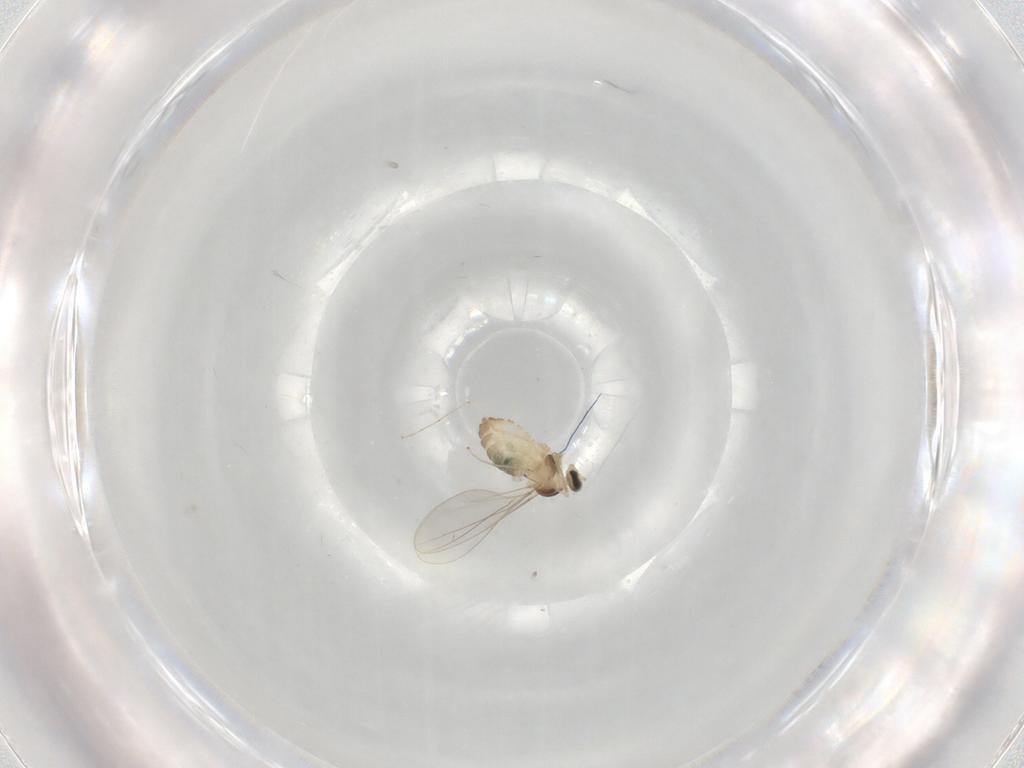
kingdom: Animalia
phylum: Arthropoda
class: Insecta
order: Diptera
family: Cecidomyiidae
